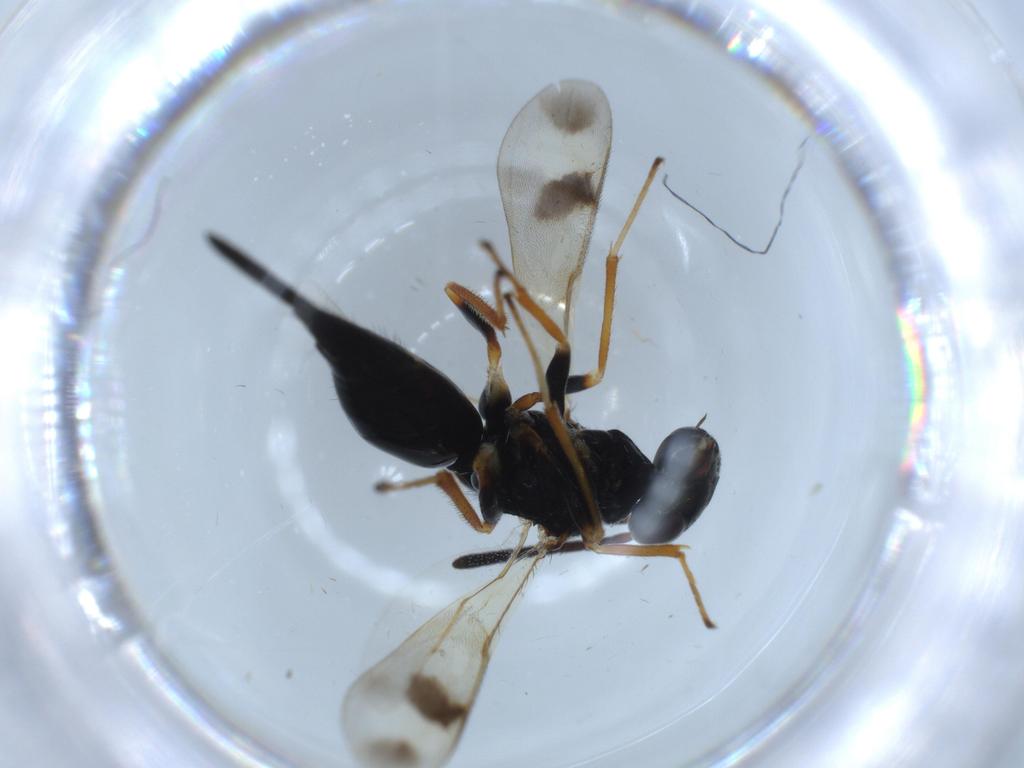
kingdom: Animalia
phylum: Arthropoda
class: Insecta
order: Hymenoptera
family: Diparidae
